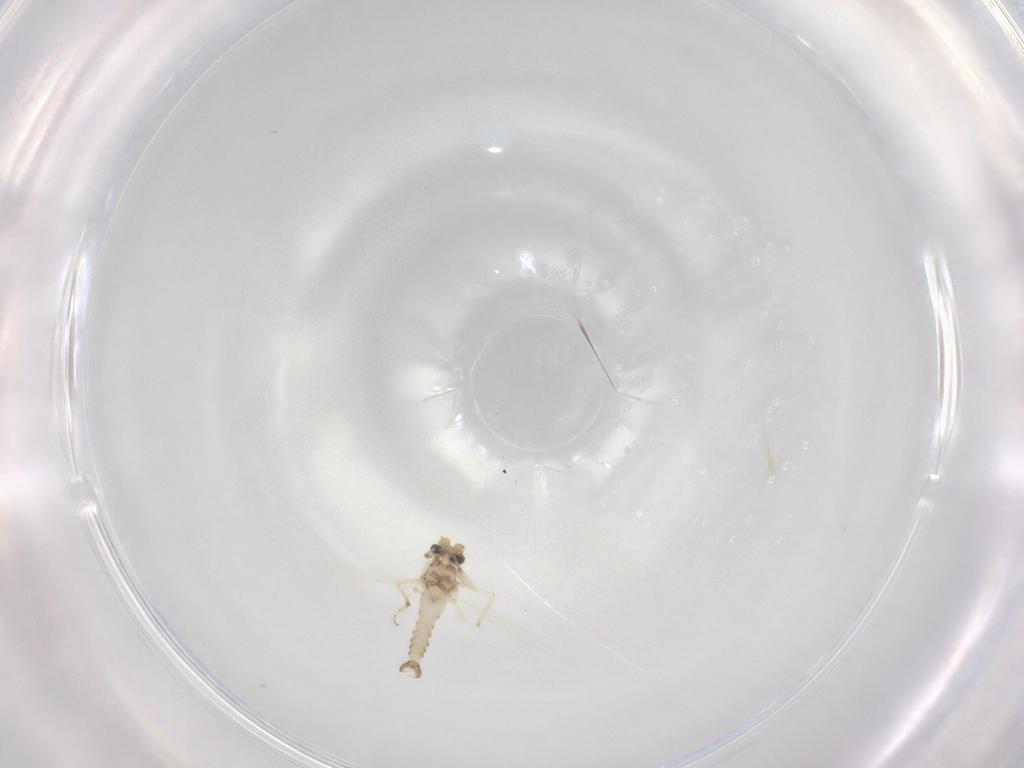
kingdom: Animalia
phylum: Arthropoda
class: Insecta
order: Diptera
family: Ceratopogonidae
